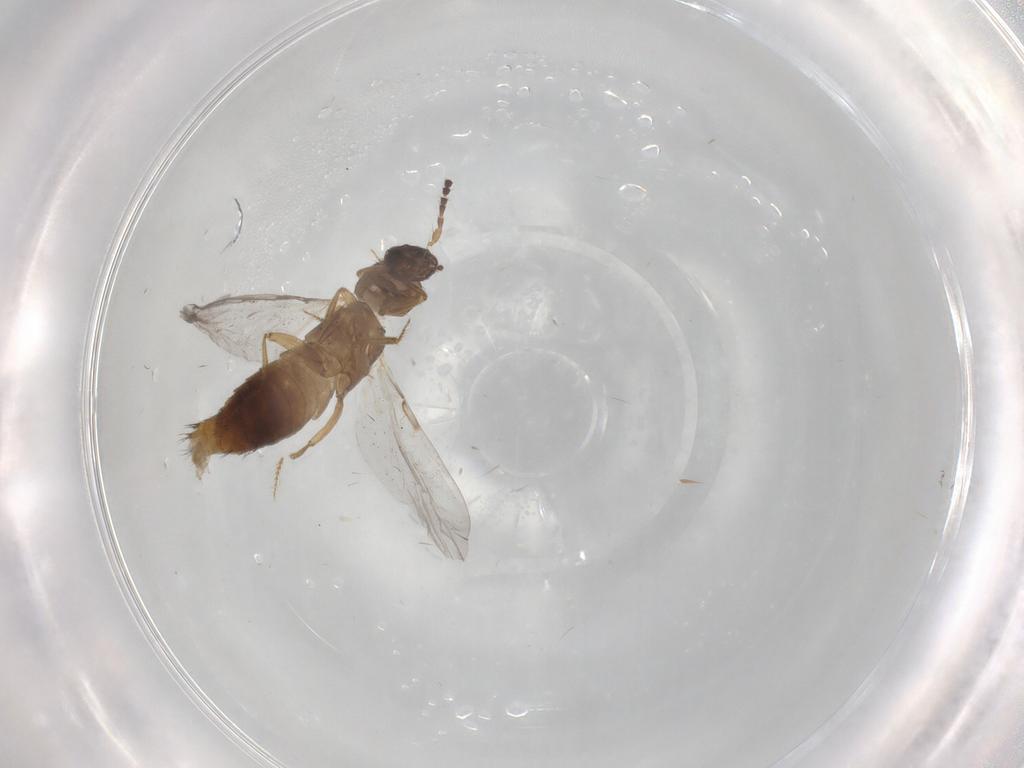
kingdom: Animalia
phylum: Arthropoda
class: Insecta
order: Coleoptera
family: Staphylinidae
